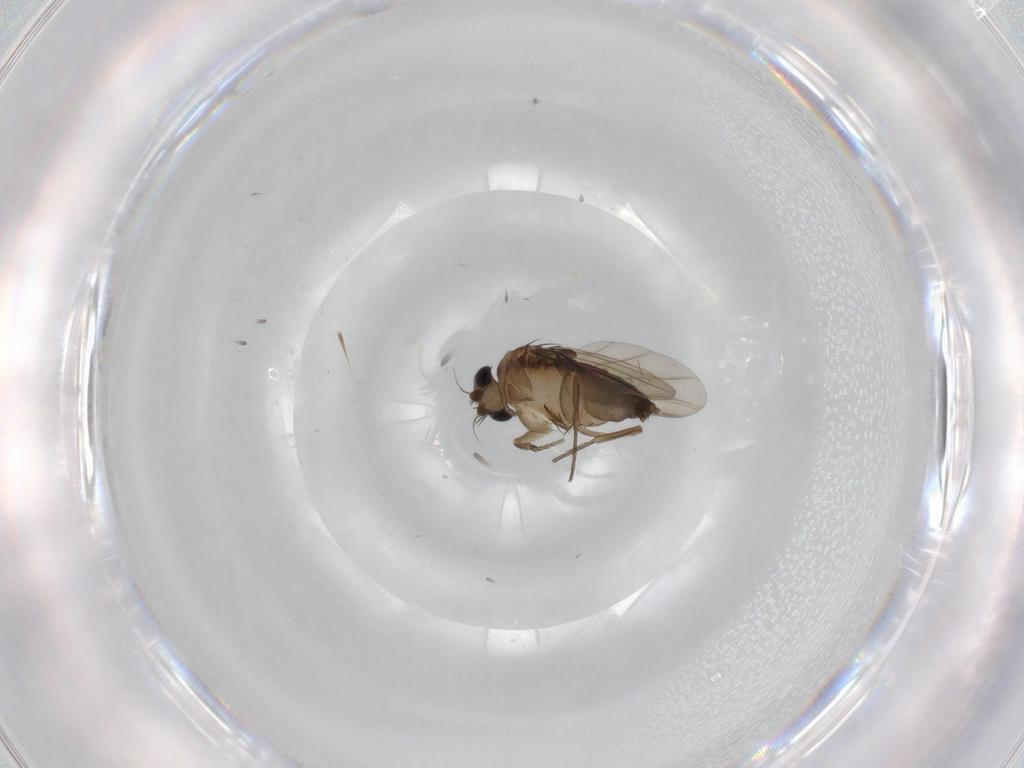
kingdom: Animalia
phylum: Arthropoda
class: Insecta
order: Diptera
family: Phoridae
